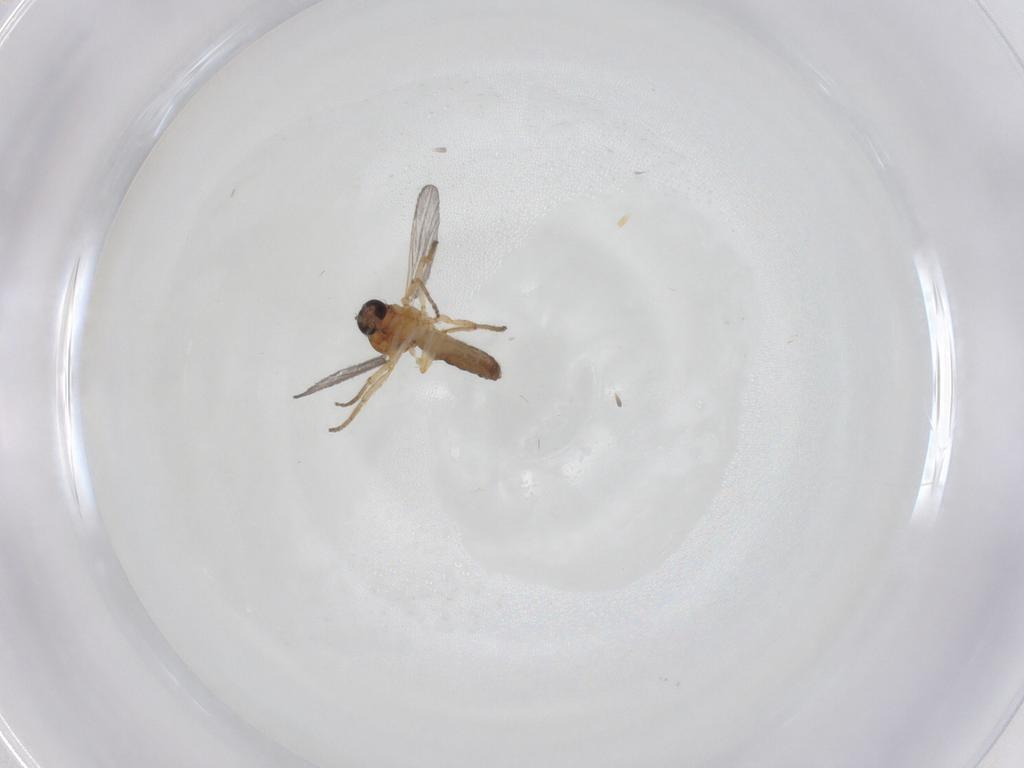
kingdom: Animalia
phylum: Arthropoda
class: Insecta
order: Diptera
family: Ceratopogonidae
